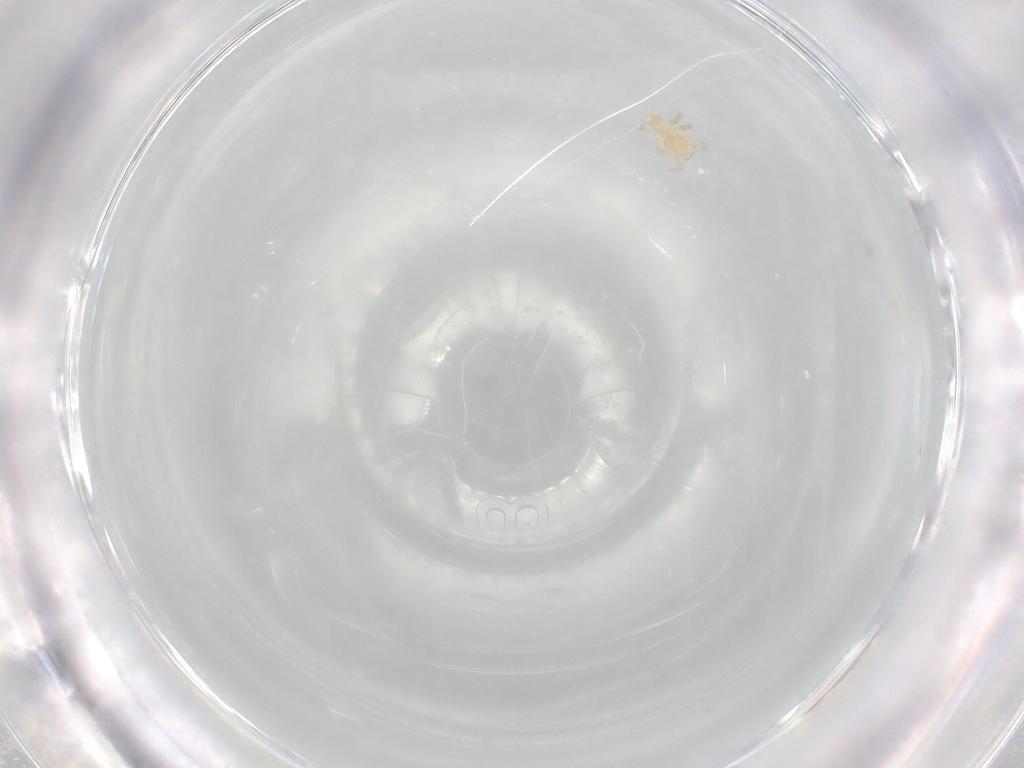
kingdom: Animalia
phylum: Arthropoda
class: Arachnida
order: Trombidiformes
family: Erythraeidae
